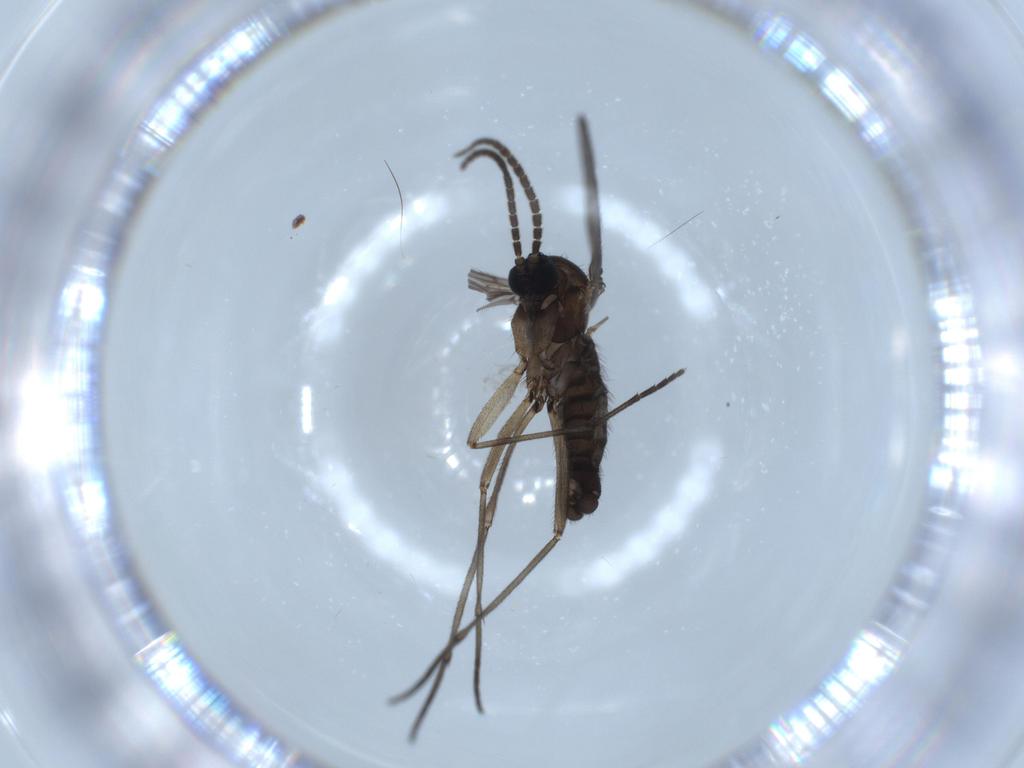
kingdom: Animalia
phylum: Arthropoda
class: Insecta
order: Diptera
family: Sciaridae
